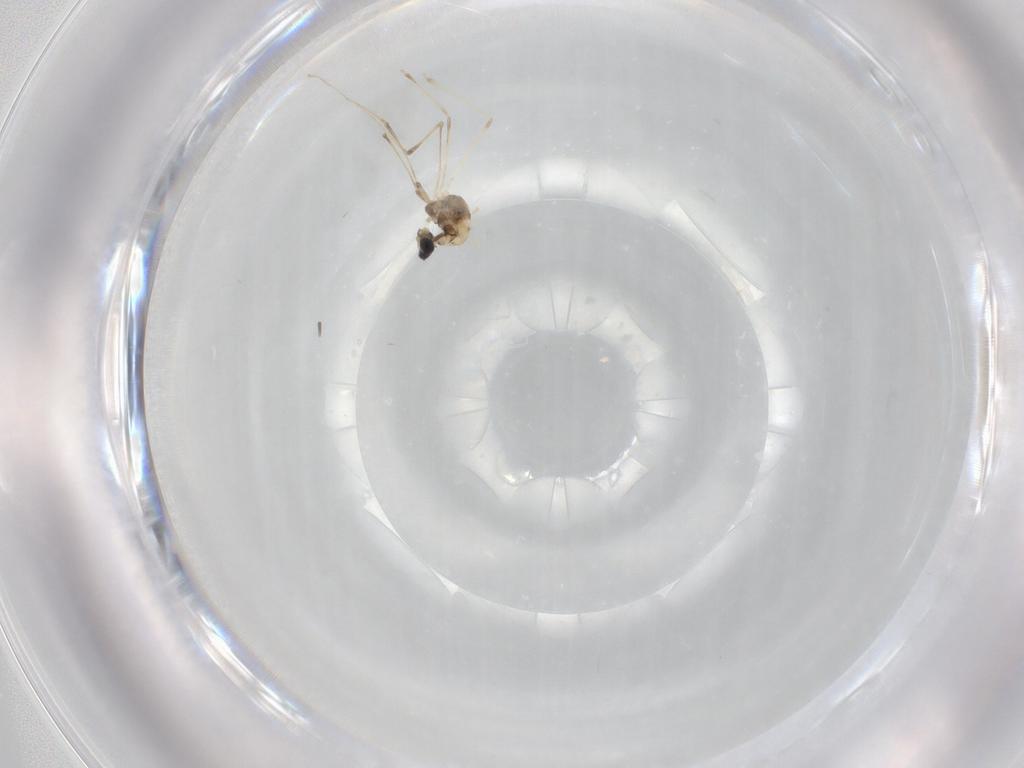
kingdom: Animalia
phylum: Arthropoda
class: Insecta
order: Diptera
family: Cecidomyiidae
